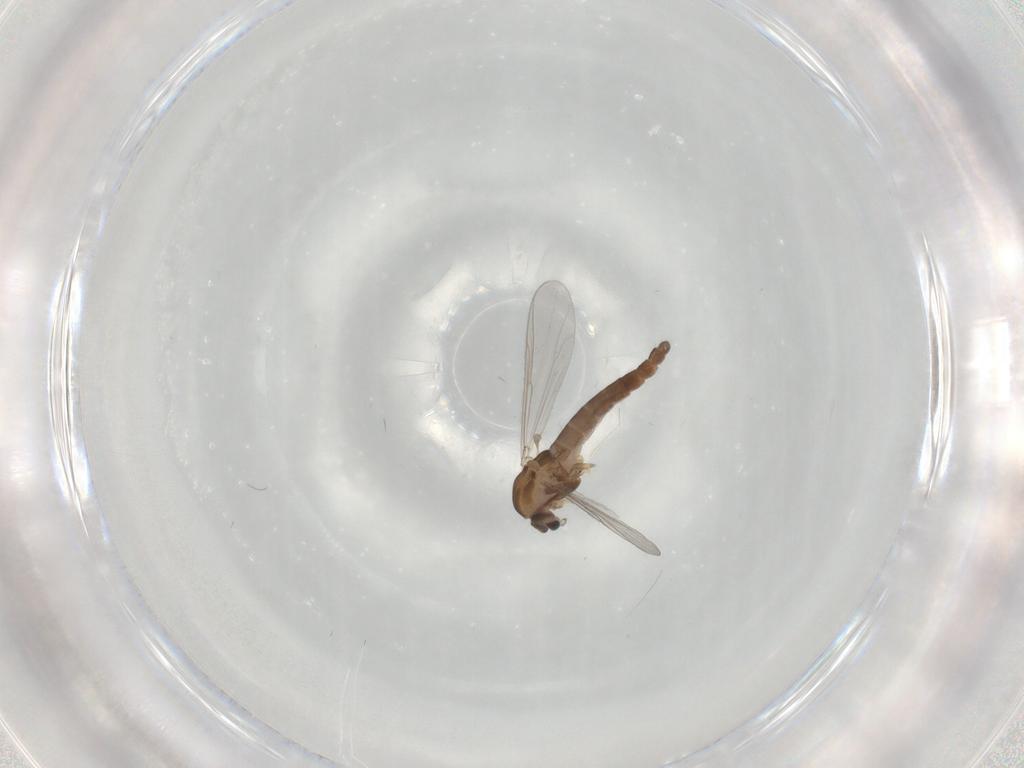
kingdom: Animalia
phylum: Arthropoda
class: Insecta
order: Diptera
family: Chironomidae
